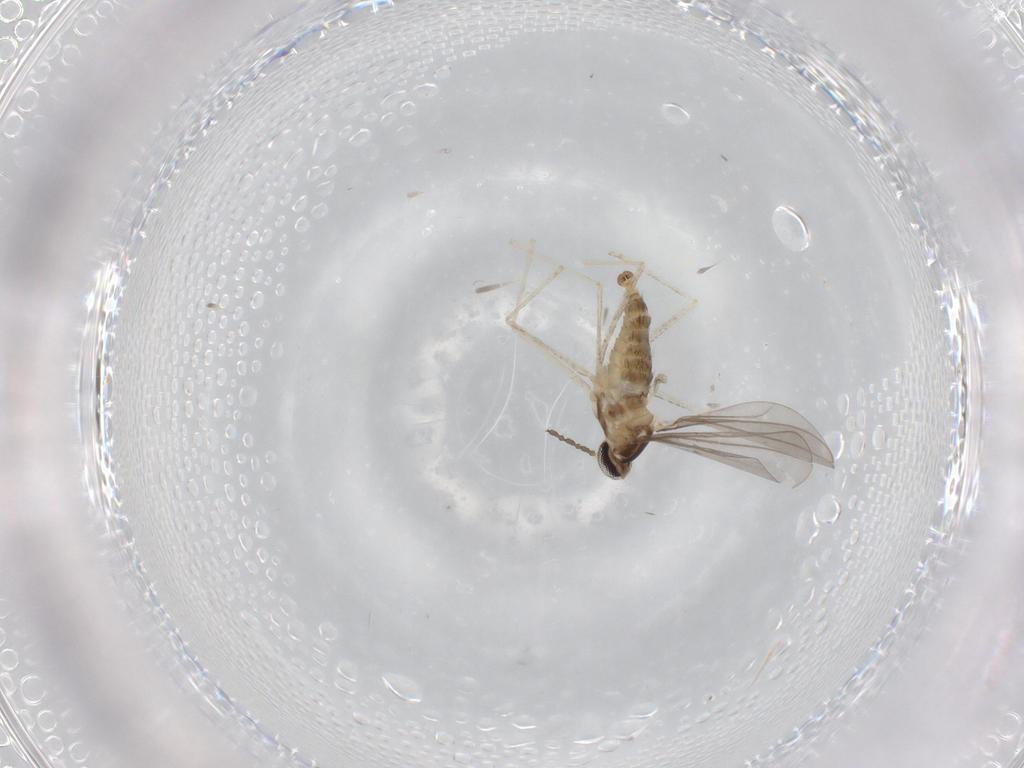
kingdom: Animalia
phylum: Arthropoda
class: Insecta
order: Diptera
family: Cecidomyiidae
